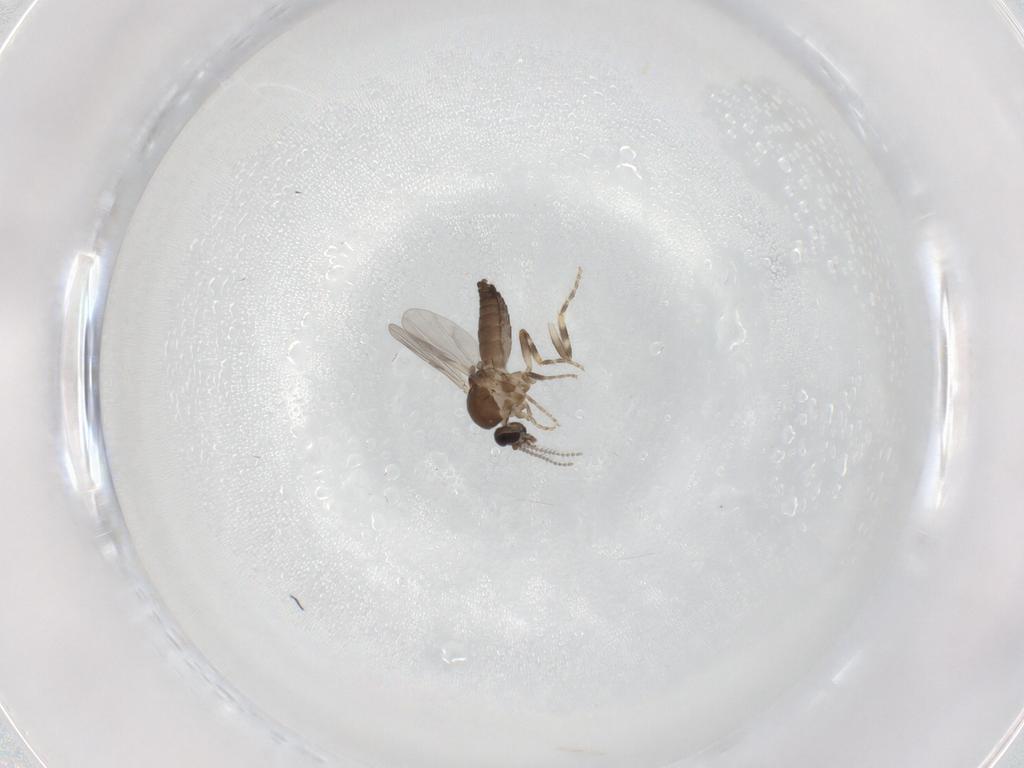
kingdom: Animalia
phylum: Arthropoda
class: Insecta
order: Diptera
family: Ceratopogonidae
